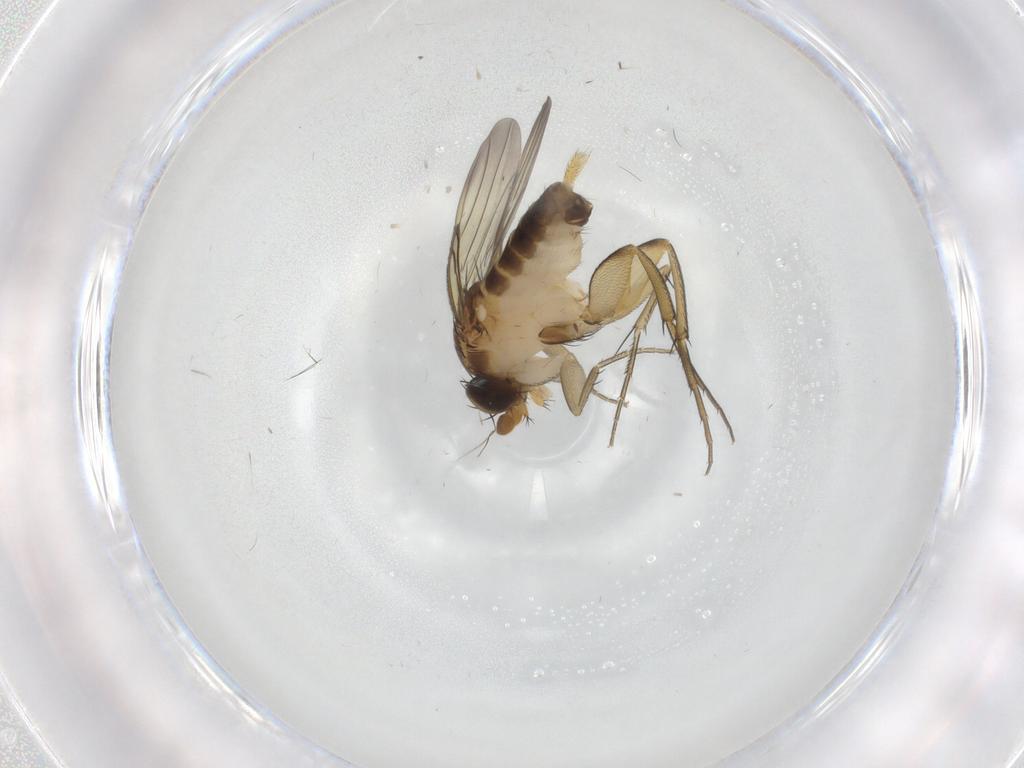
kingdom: Animalia
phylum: Arthropoda
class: Insecta
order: Diptera
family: Phoridae
